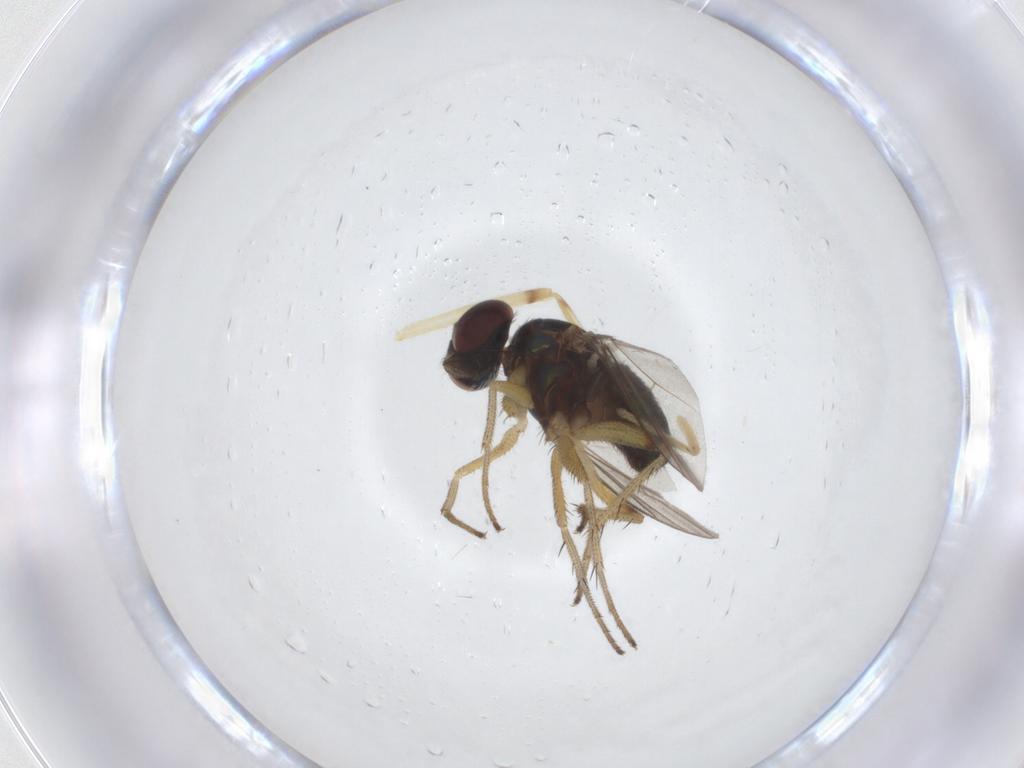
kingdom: Animalia
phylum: Arthropoda
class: Insecta
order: Diptera
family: Chironomidae
